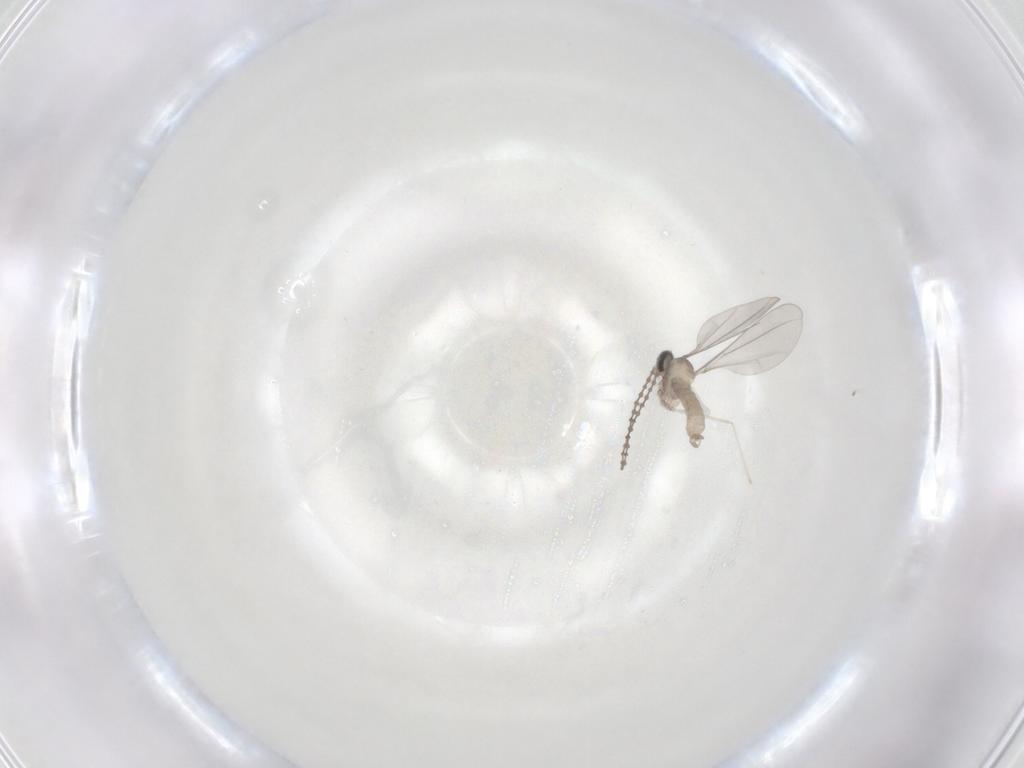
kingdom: Animalia
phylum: Arthropoda
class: Insecta
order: Diptera
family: Cecidomyiidae
